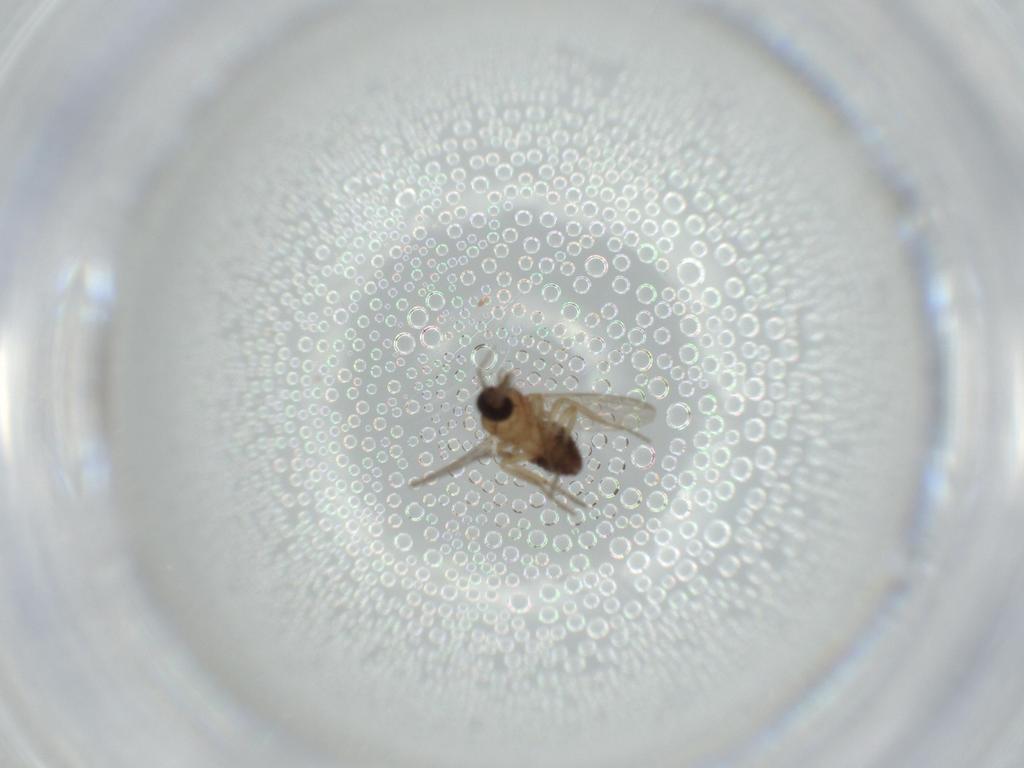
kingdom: Animalia
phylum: Arthropoda
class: Insecta
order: Diptera
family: Ceratopogonidae
